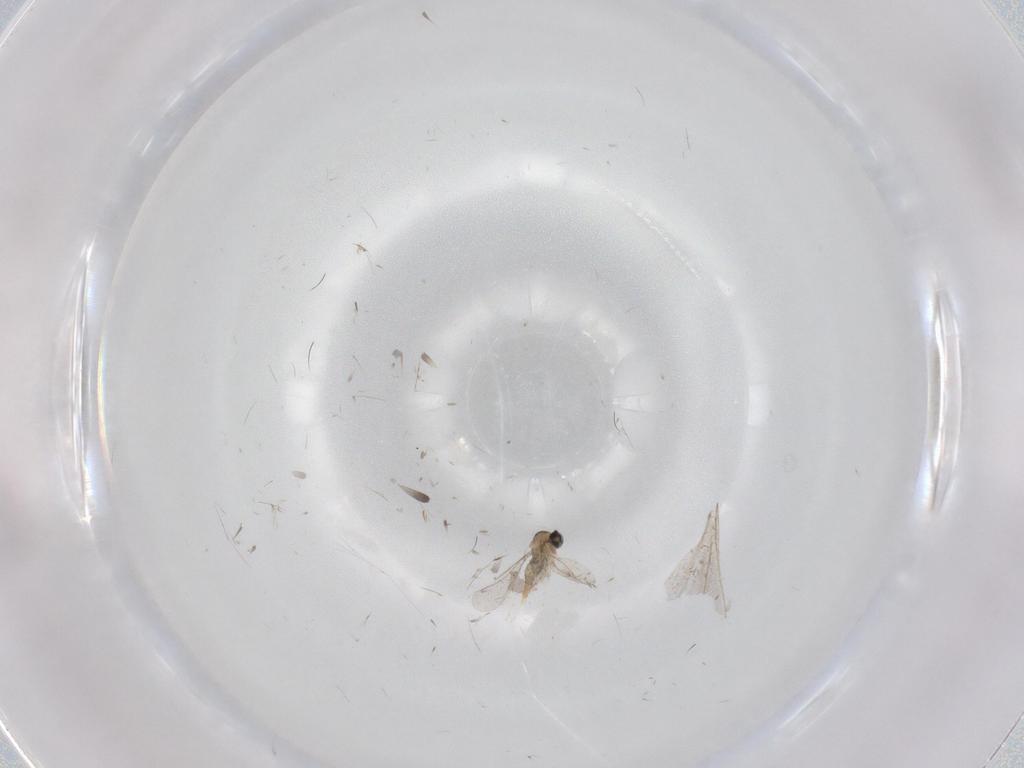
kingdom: Animalia
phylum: Arthropoda
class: Insecta
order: Diptera
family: Cecidomyiidae
